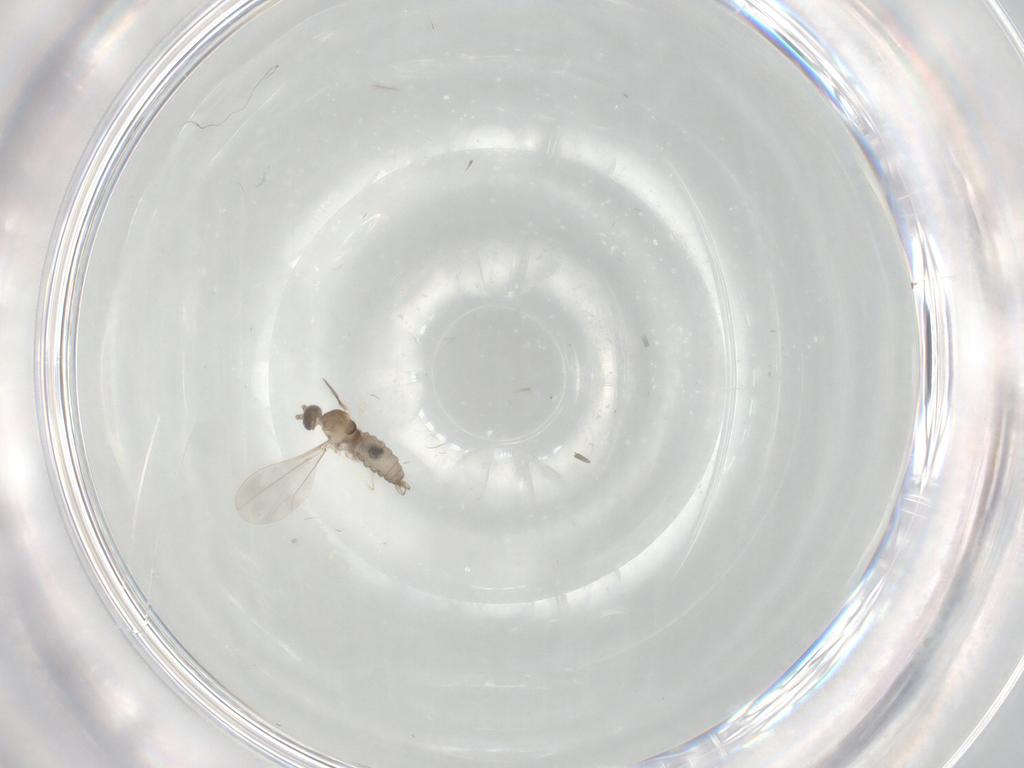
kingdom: Animalia
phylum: Arthropoda
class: Insecta
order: Diptera
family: Cecidomyiidae
